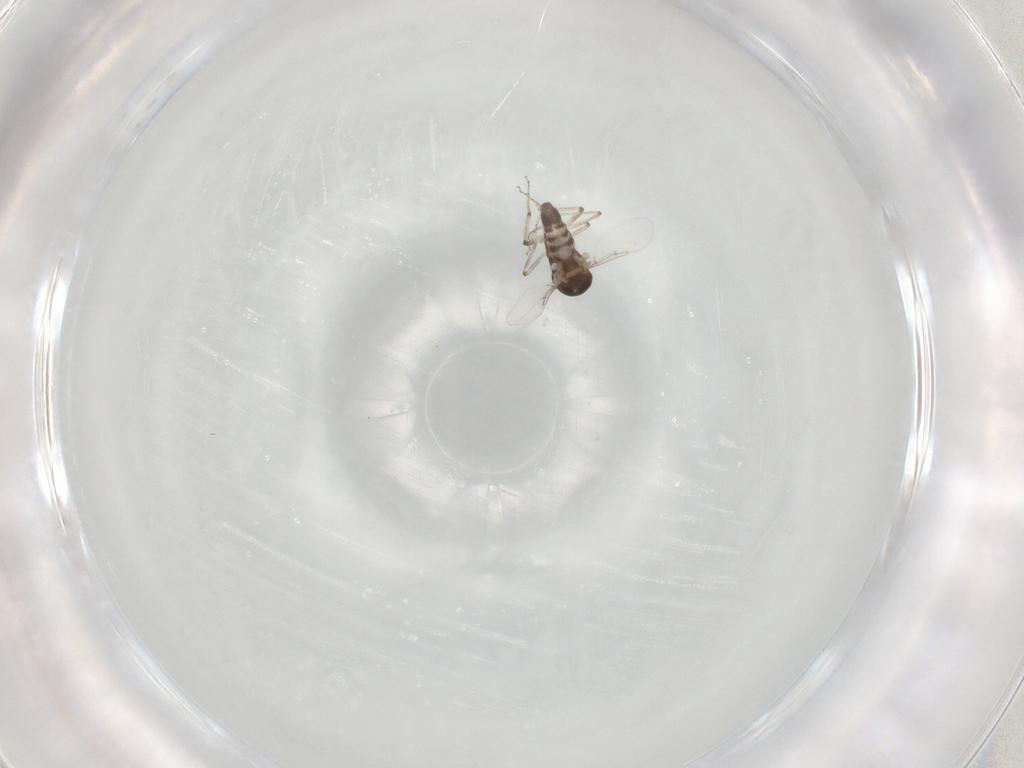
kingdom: Animalia
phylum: Arthropoda
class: Insecta
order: Diptera
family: Ceratopogonidae
